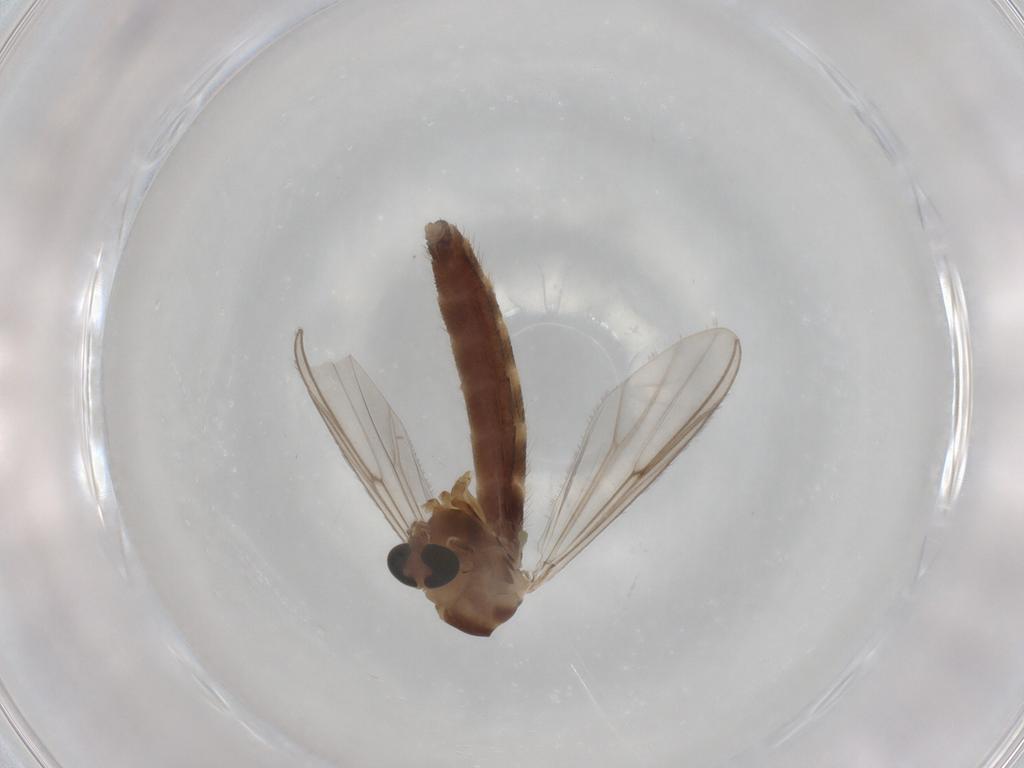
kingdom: Animalia
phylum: Arthropoda
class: Insecta
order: Diptera
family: Chironomidae
